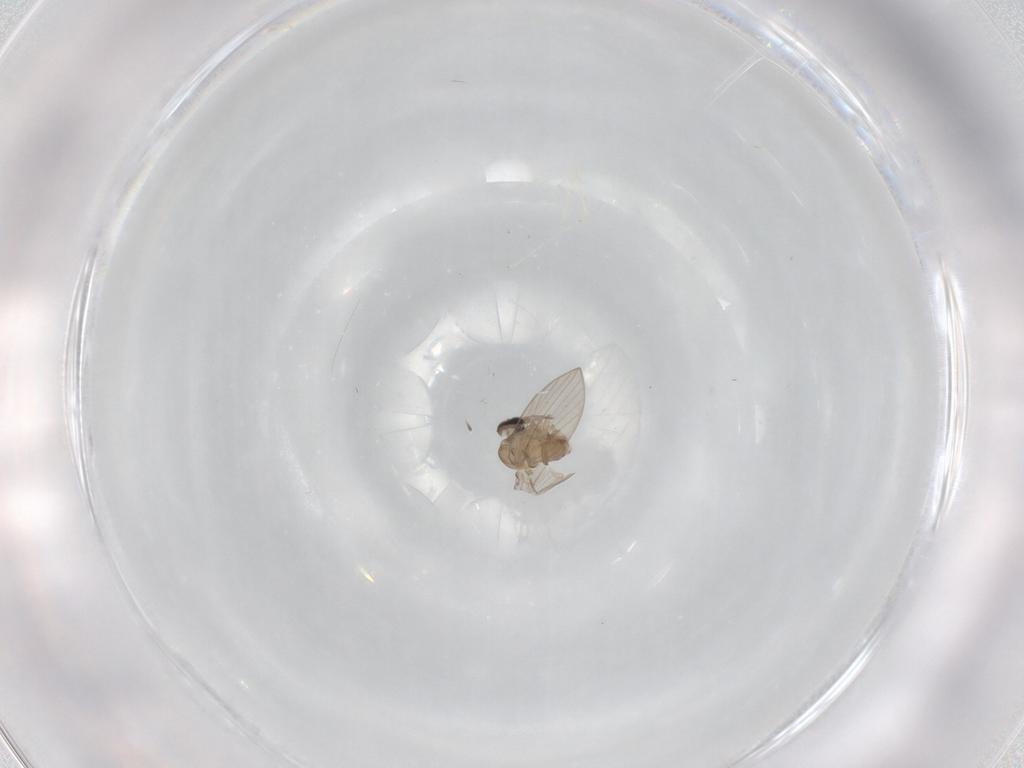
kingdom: Animalia
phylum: Arthropoda
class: Insecta
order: Diptera
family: Psychodidae
